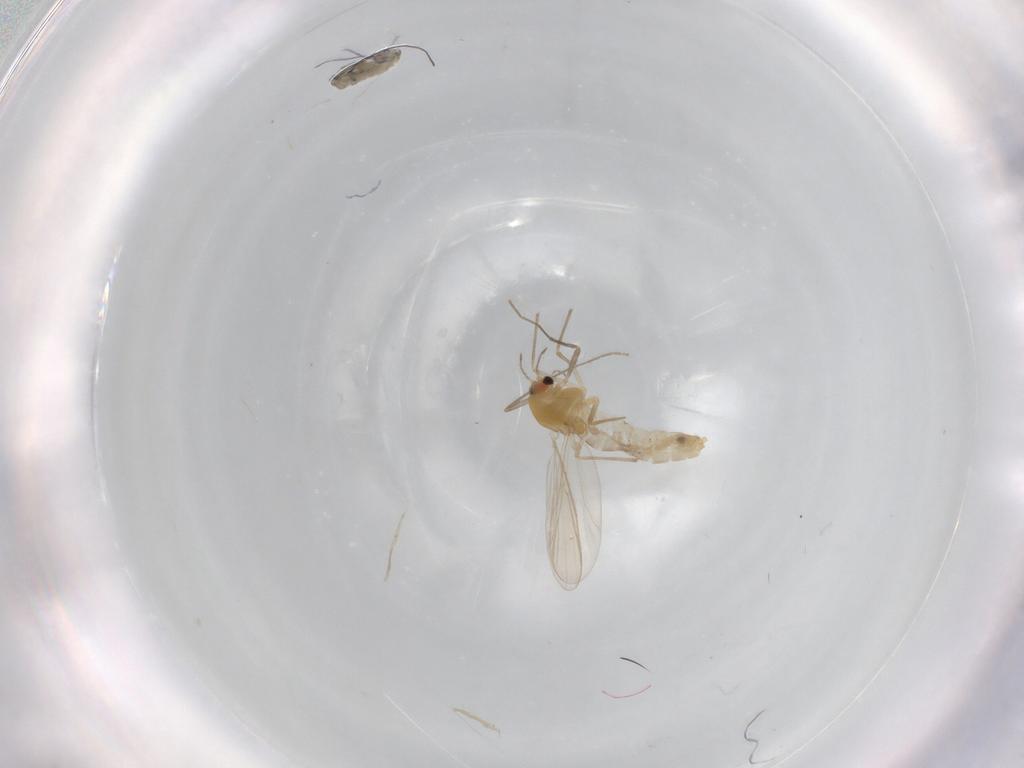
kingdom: Animalia
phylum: Arthropoda
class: Insecta
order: Diptera
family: Chironomidae
